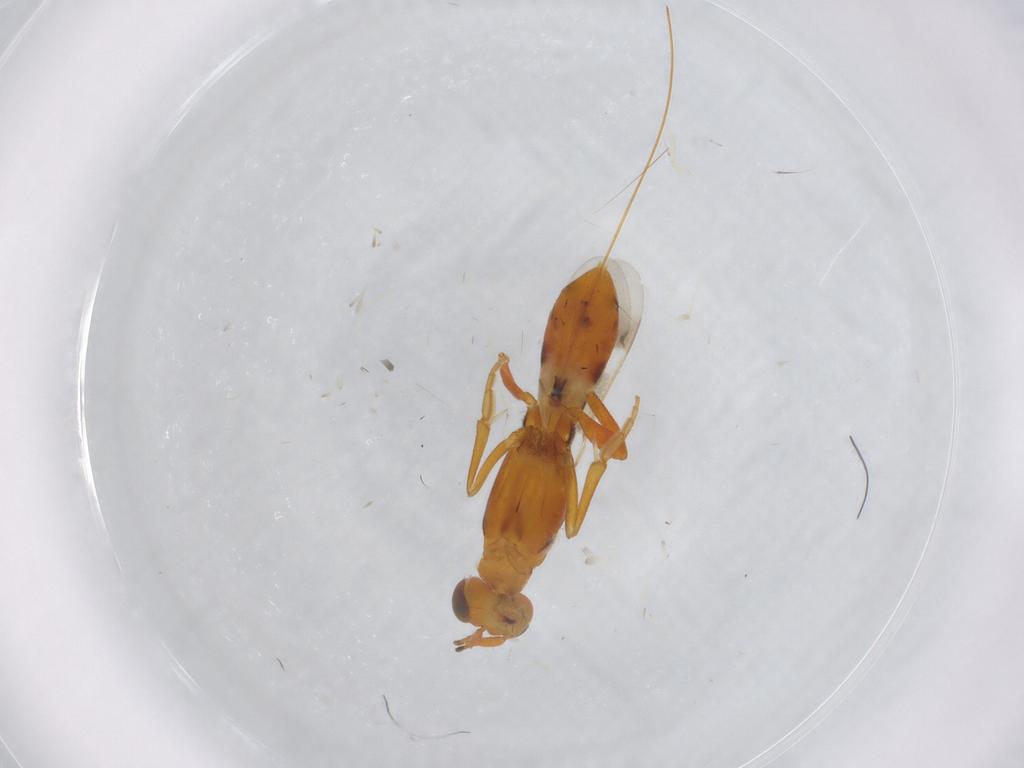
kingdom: Animalia
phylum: Arthropoda
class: Insecta
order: Hymenoptera
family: Eupelmidae
